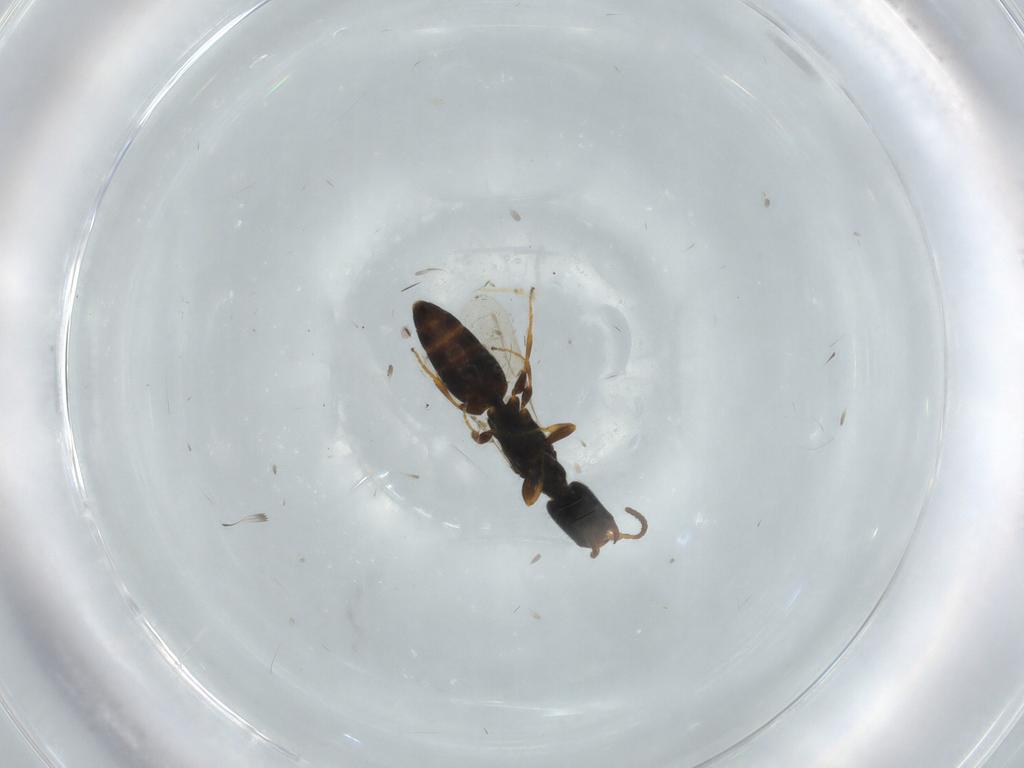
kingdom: Animalia
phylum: Arthropoda
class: Insecta
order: Hymenoptera
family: Bethylidae
